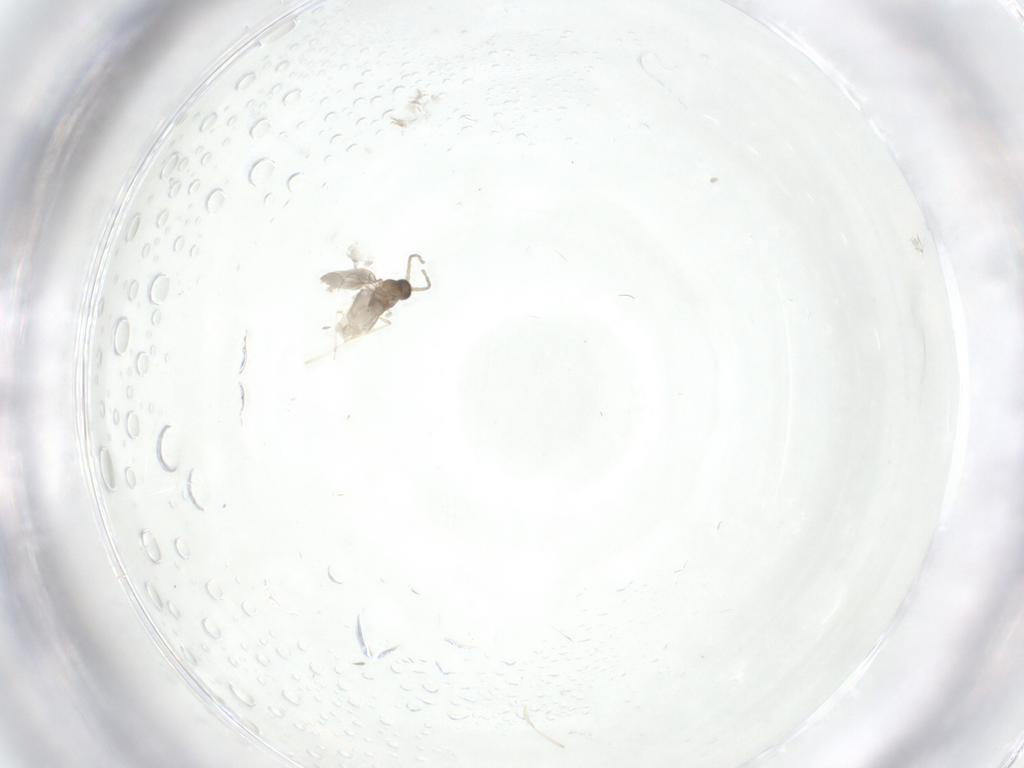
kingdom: Animalia
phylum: Arthropoda
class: Insecta
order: Diptera
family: Cecidomyiidae
